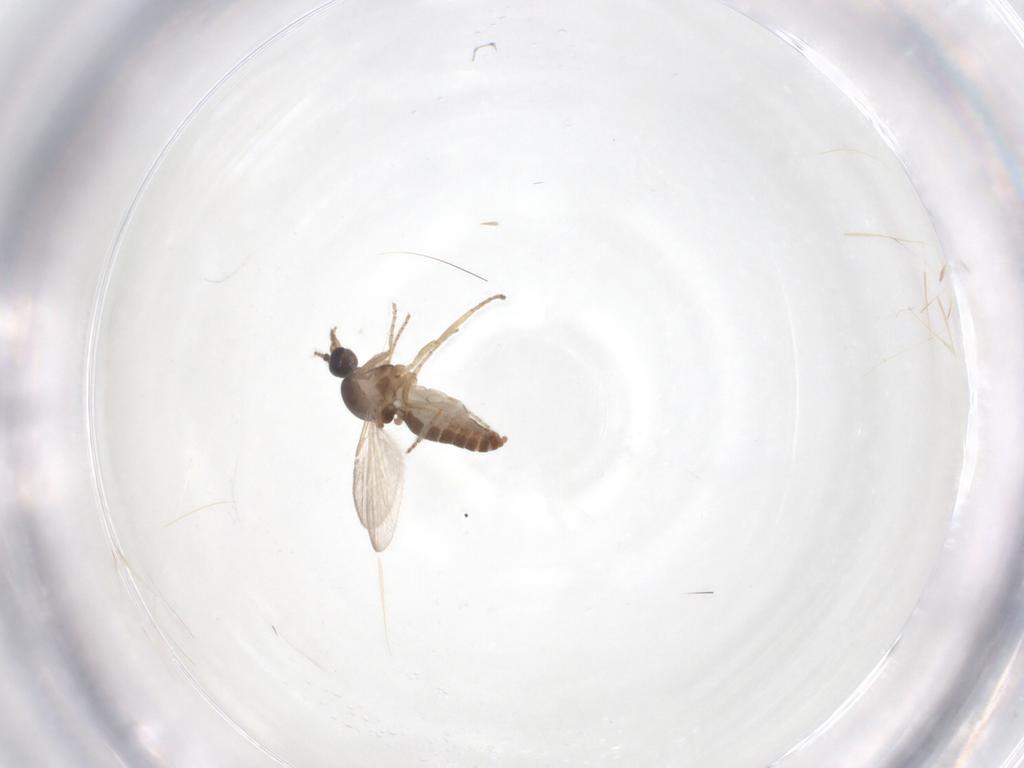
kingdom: Animalia
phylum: Arthropoda
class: Insecta
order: Diptera
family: Ceratopogonidae
